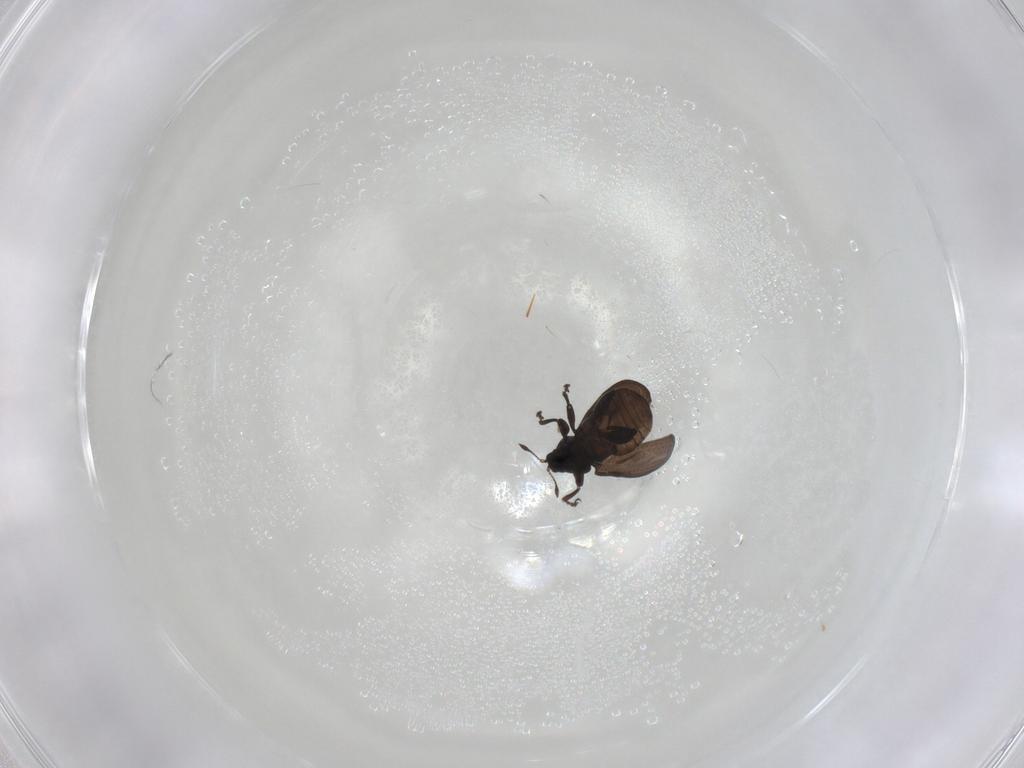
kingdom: Animalia
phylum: Arthropoda
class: Insecta
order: Coleoptera
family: Curculionidae
